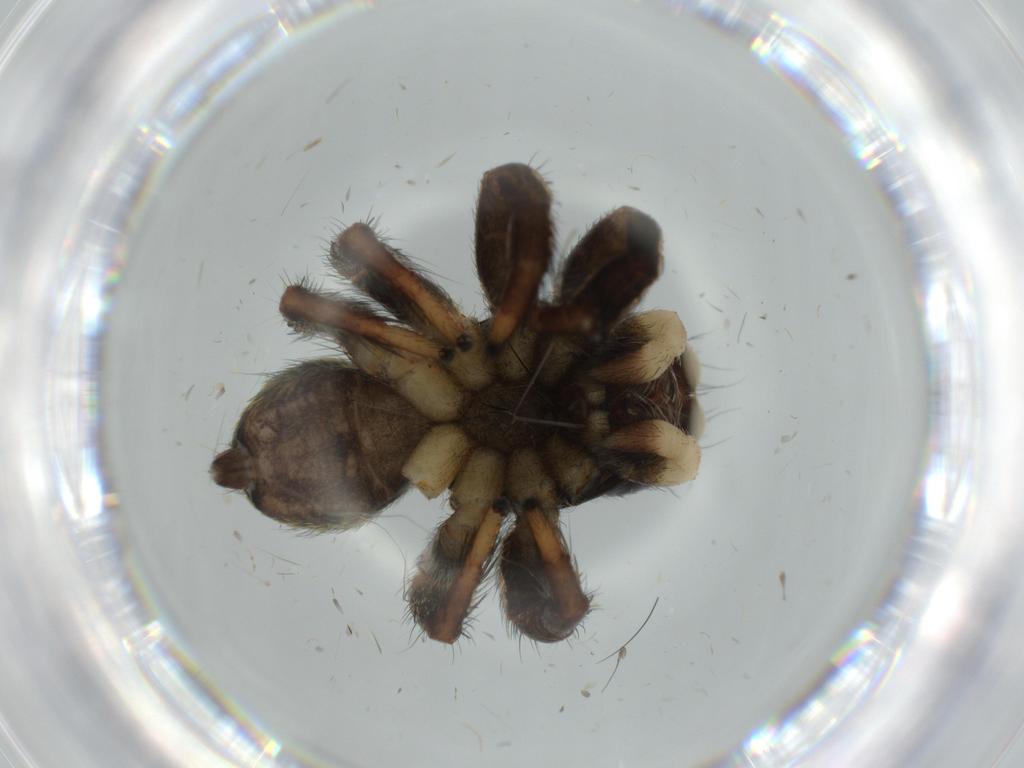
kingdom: Animalia
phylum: Arthropoda
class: Arachnida
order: Araneae
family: Salticidae
